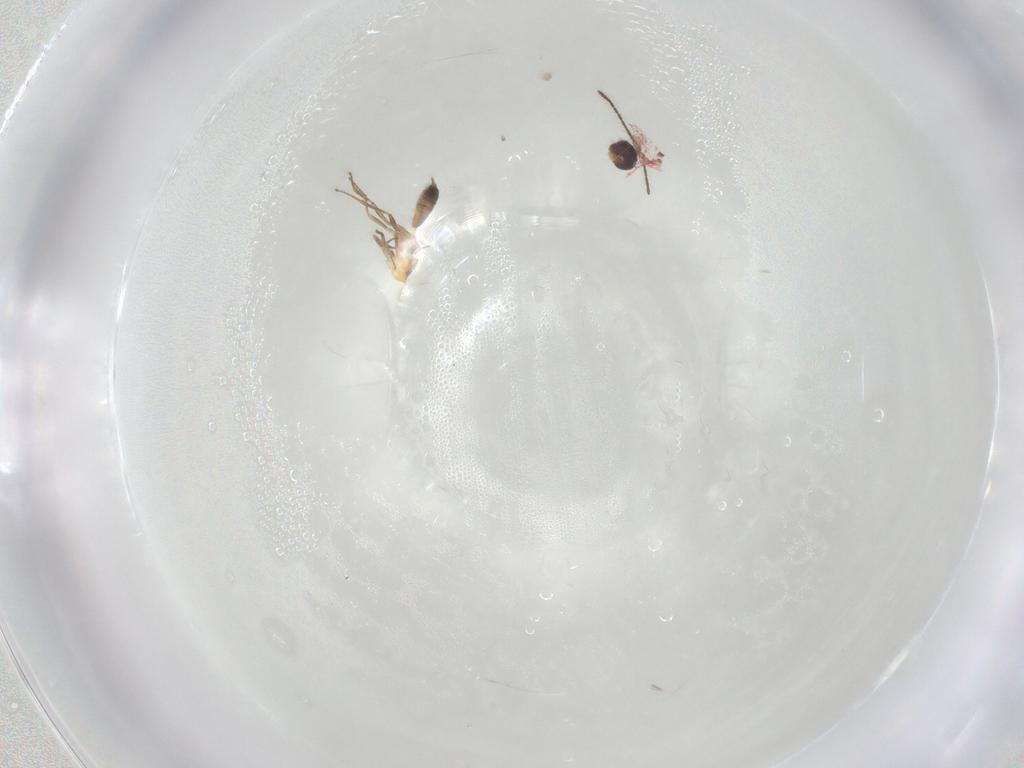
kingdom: Animalia
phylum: Arthropoda
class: Insecta
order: Hymenoptera
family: Eupelmidae
